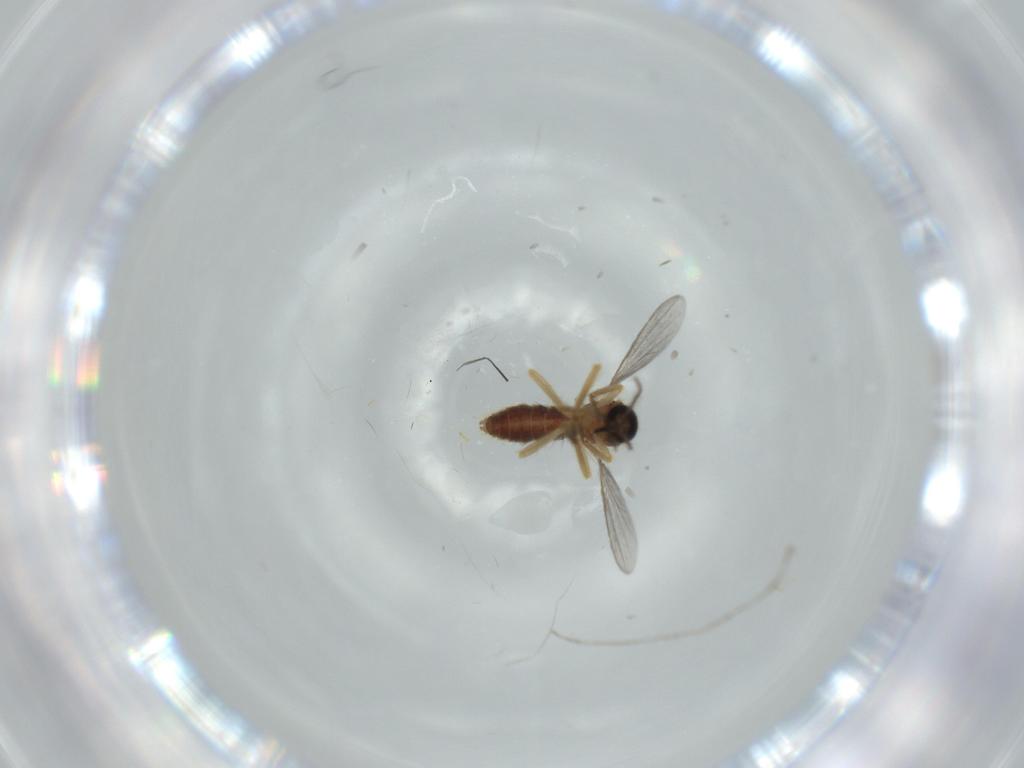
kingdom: Animalia
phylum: Arthropoda
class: Insecta
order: Diptera
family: Ceratopogonidae
